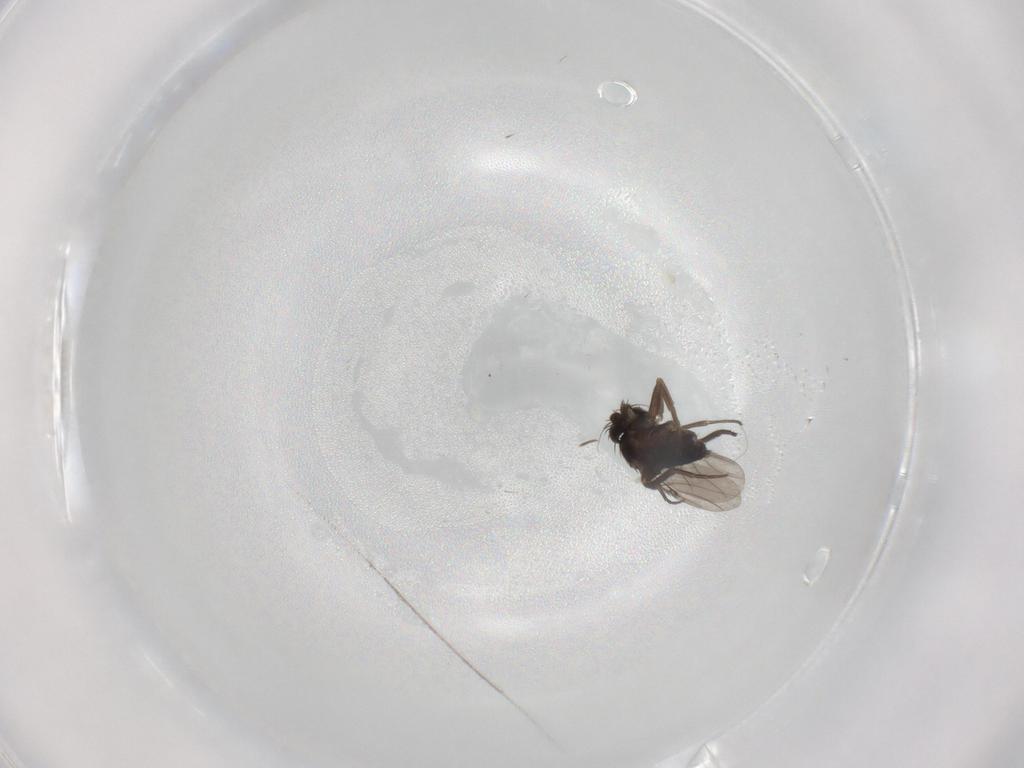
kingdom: Animalia
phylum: Arthropoda
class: Insecta
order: Diptera
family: Phoridae
